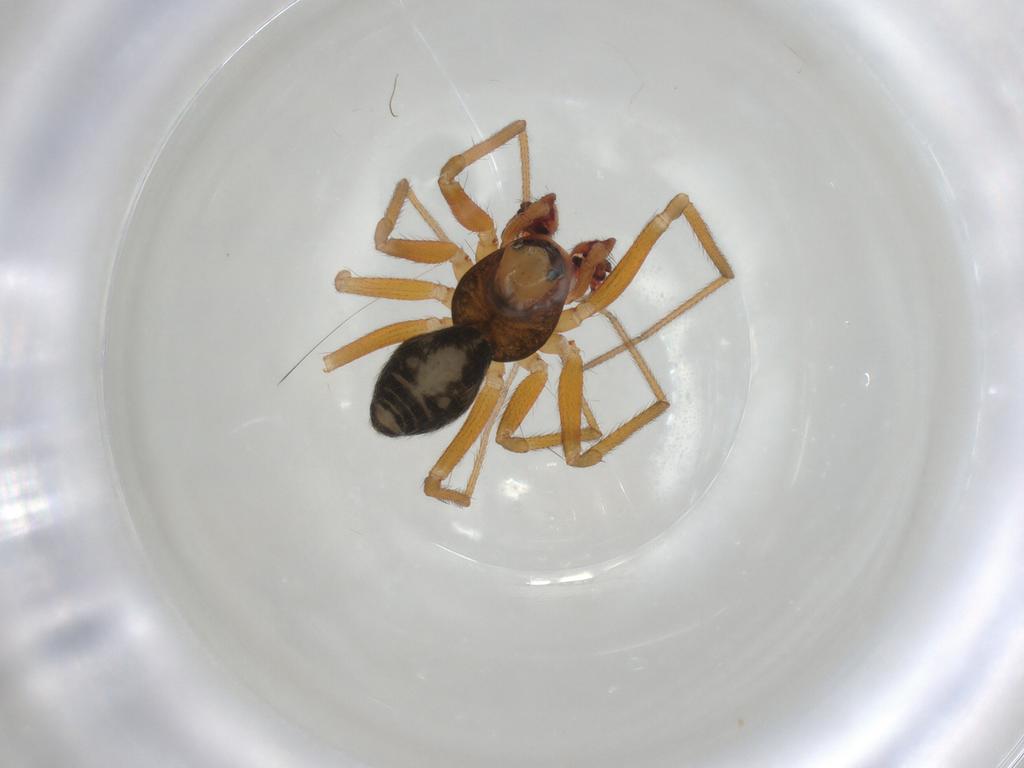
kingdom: Animalia
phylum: Arthropoda
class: Arachnida
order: Araneae
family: Linyphiidae
